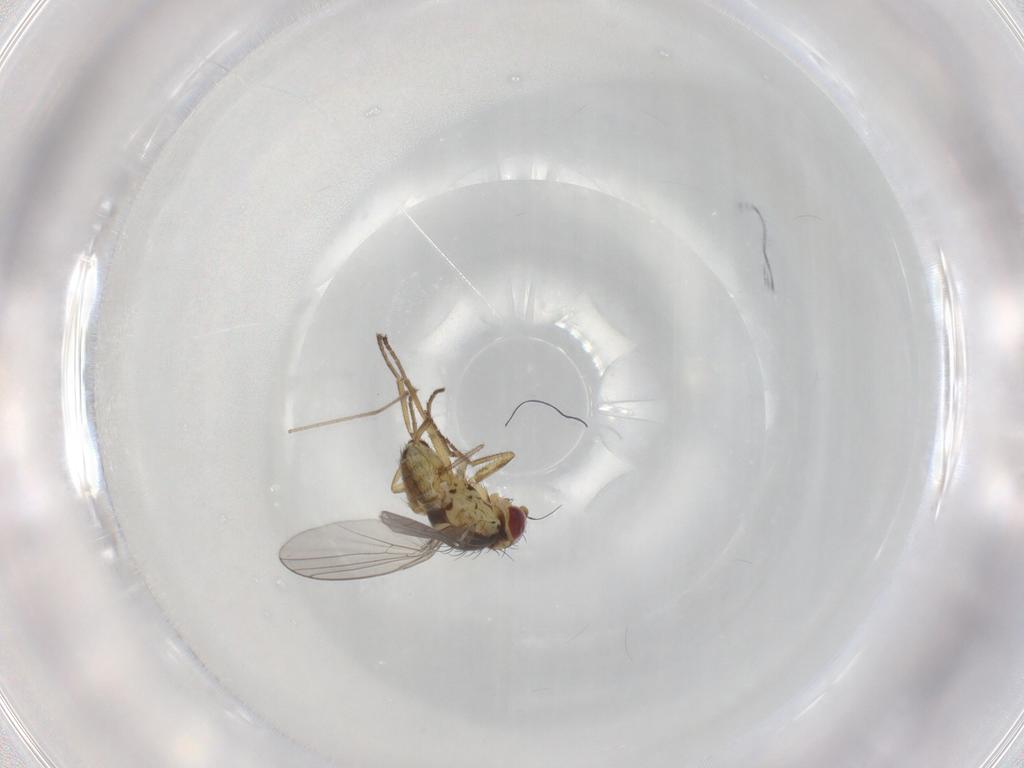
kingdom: Animalia
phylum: Arthropoda
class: Insecta
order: Diptera
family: Agromyzidae
